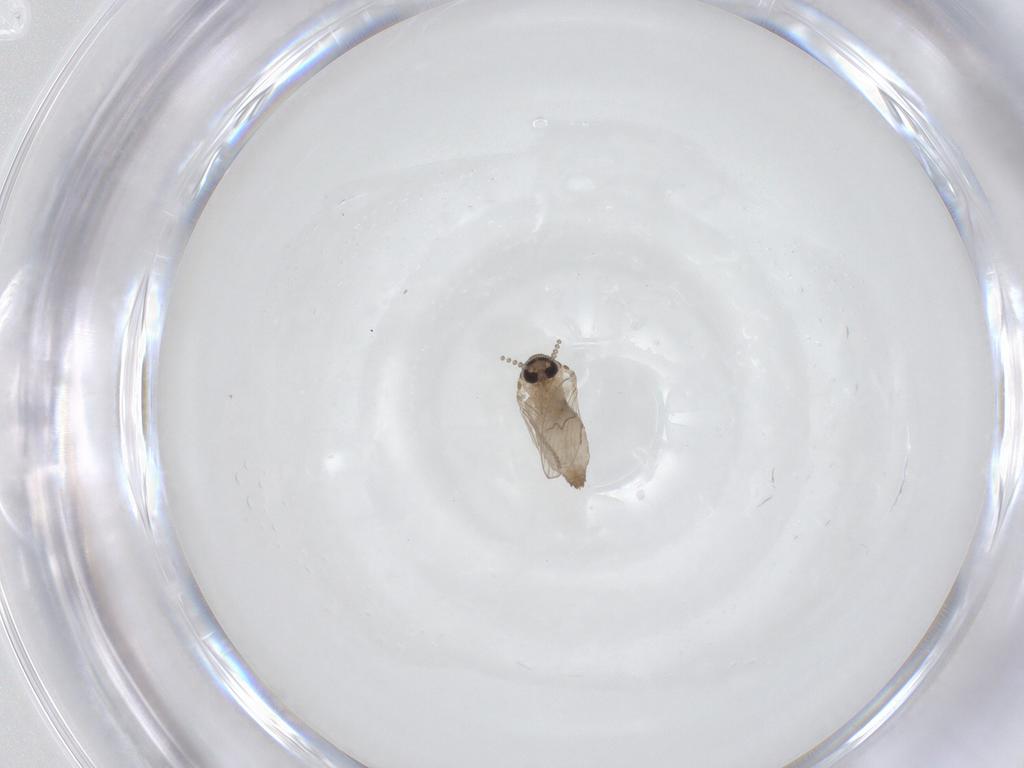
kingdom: Animalia
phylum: Arthropoda
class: Insecta
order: Diptera
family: Psychodidae
